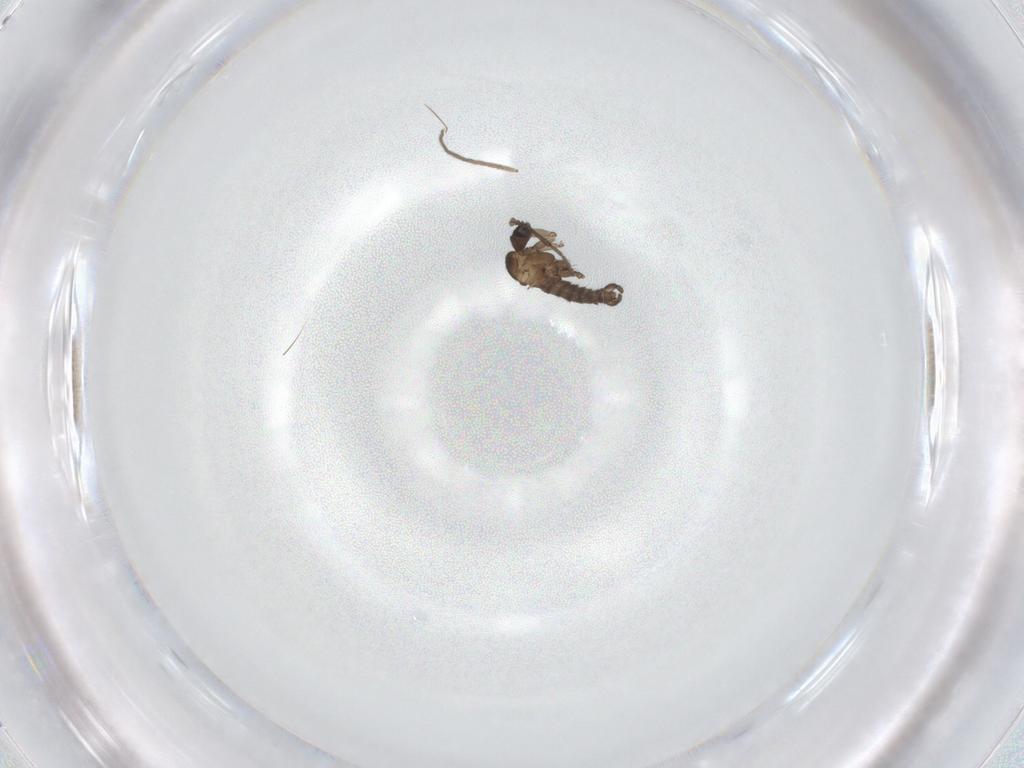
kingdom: Animalia
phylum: Arthropoda
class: Insecta
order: Diptera
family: Sciaridae
